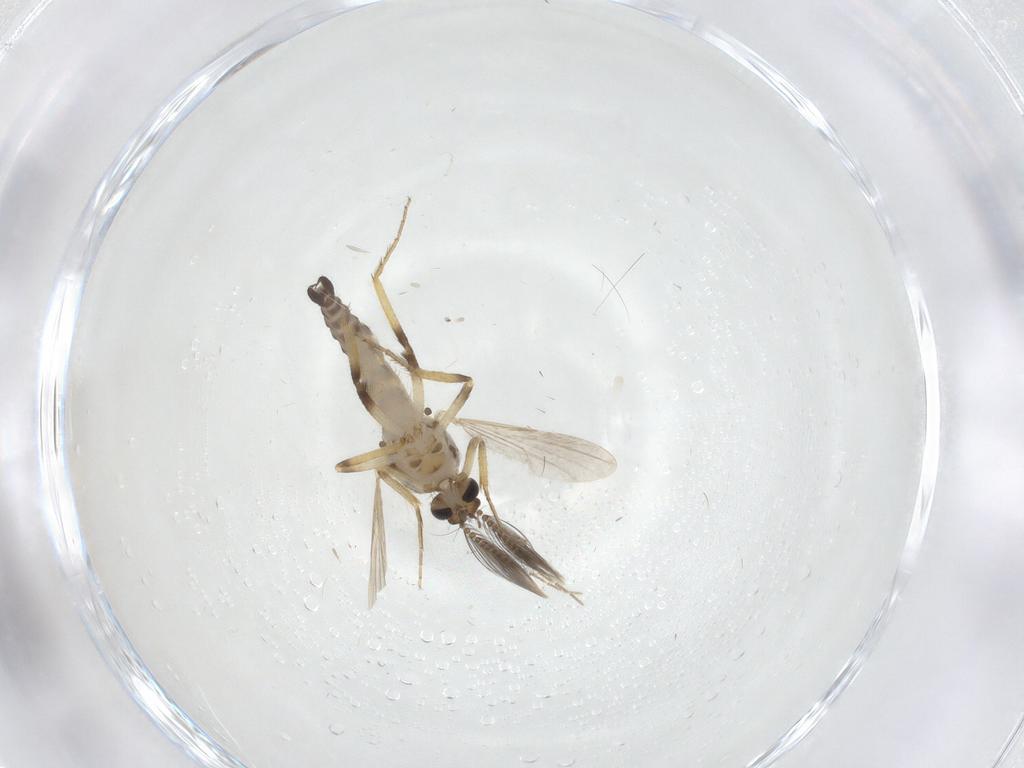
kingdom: Animalia
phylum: Arthropoda
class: Insecta
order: Diptera
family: Ceratopogonidae
